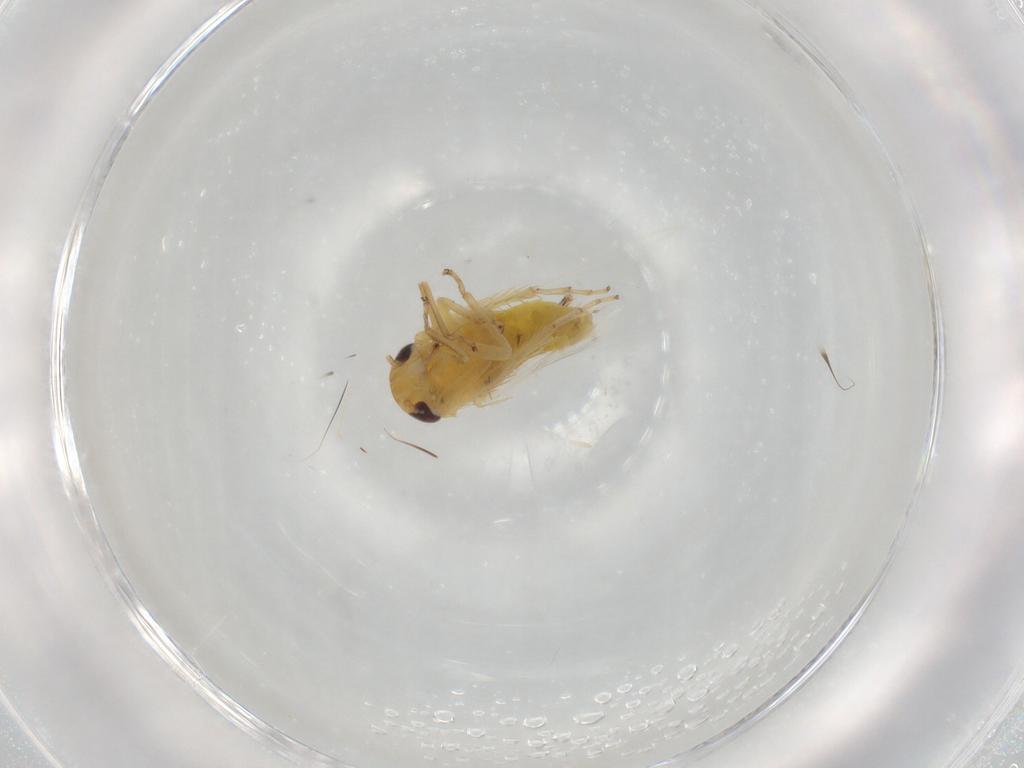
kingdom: Animalia
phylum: Arthropoda
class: Insecta
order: Hemiptera
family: Cicadellidae
